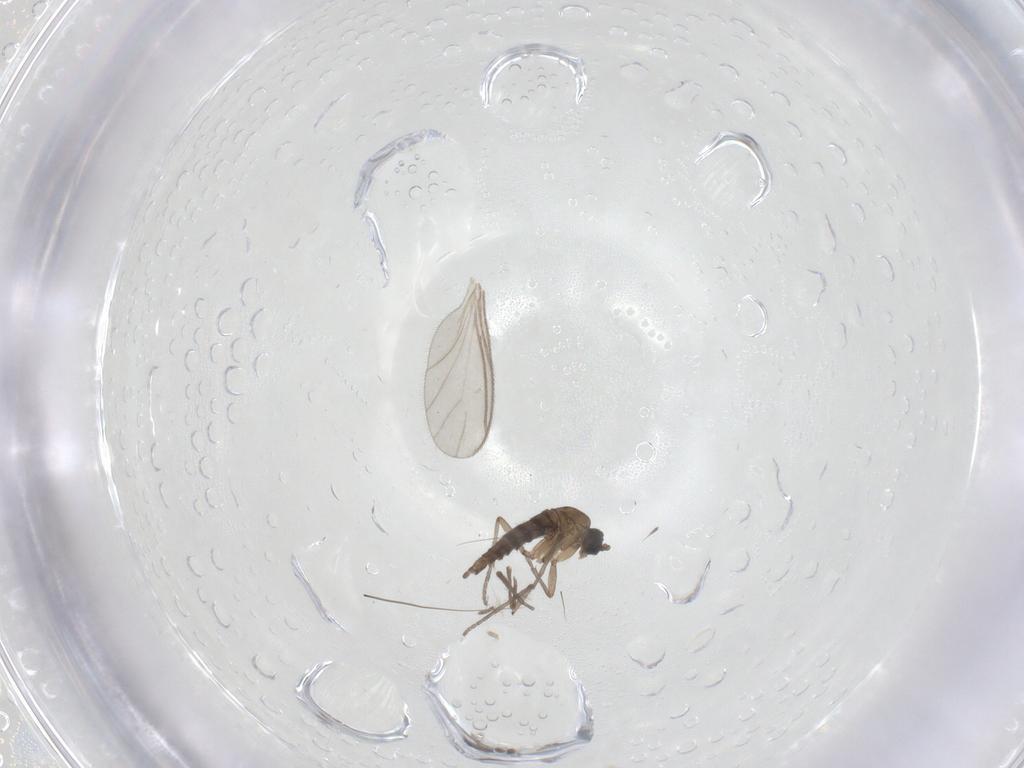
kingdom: Animalia
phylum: Arthropoda
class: Insecta
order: Diptera
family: Sciaridae
